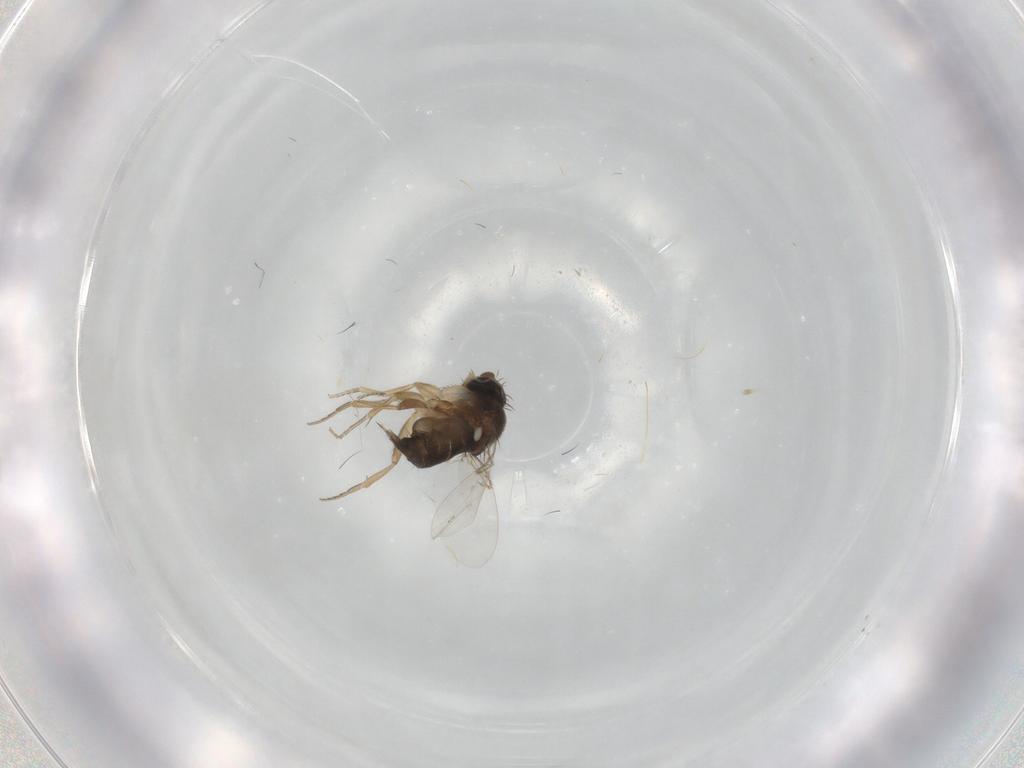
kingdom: Animalia
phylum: Arthropoda
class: Insecta
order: Diptera
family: Phoridae
